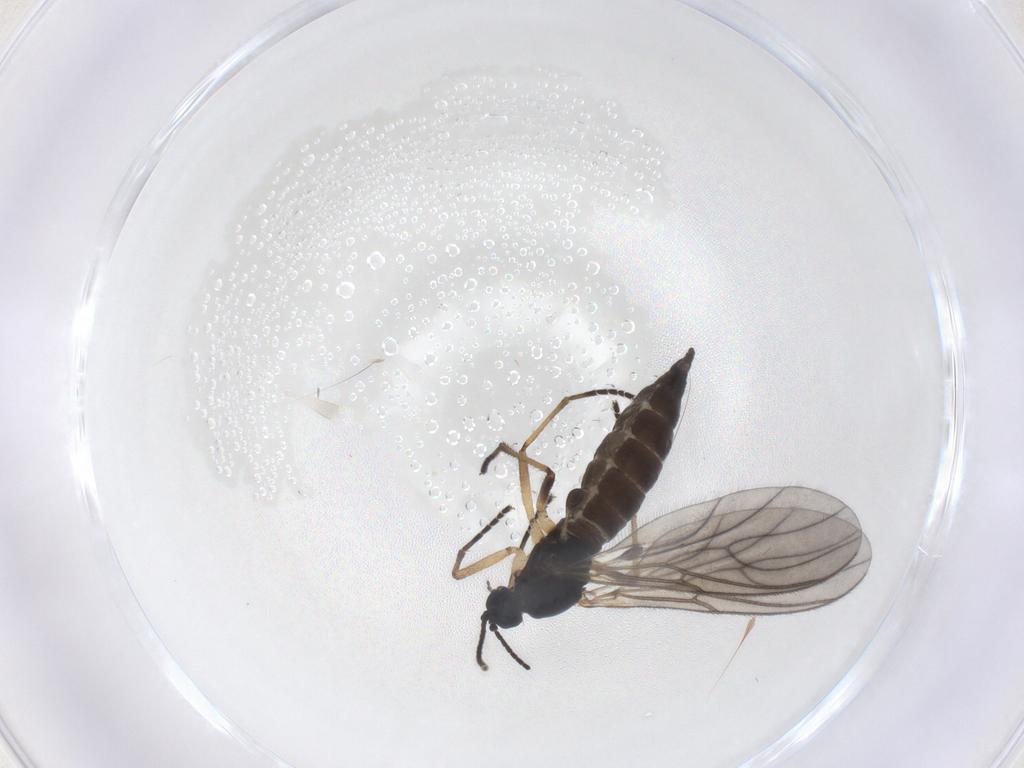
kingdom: Animalia
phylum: Arthropoda
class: Insecta
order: Diptera
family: Sciaridae
